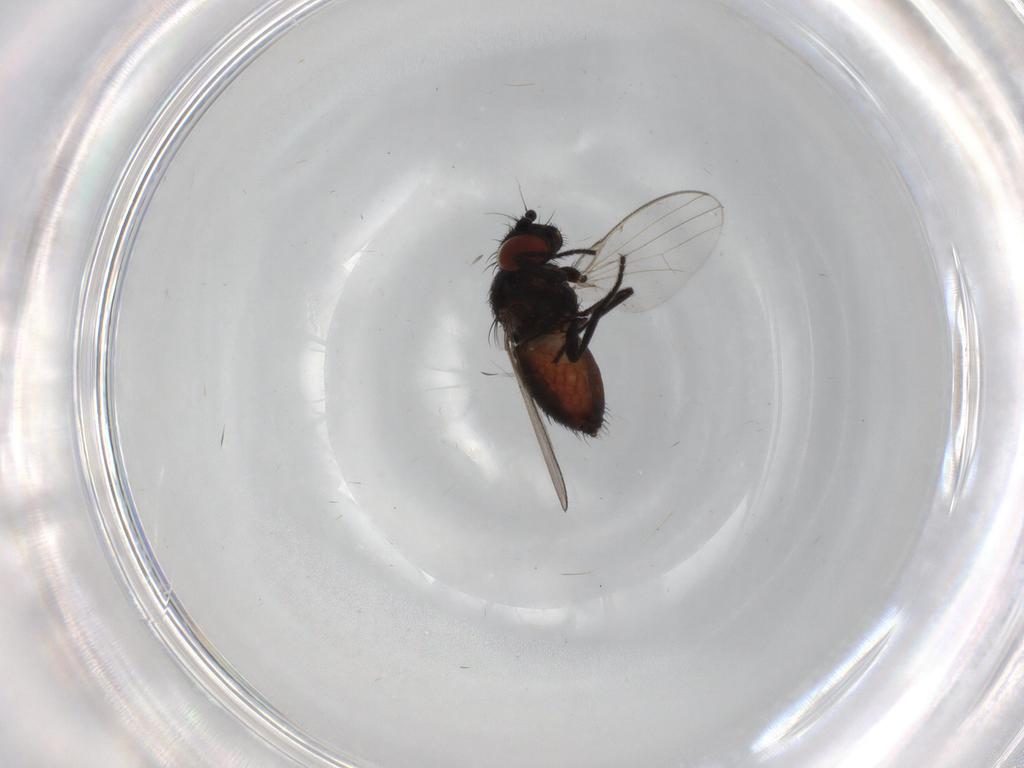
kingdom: Animalia
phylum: Arthropoda
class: Insecta
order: Diptera
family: Milichiidae
